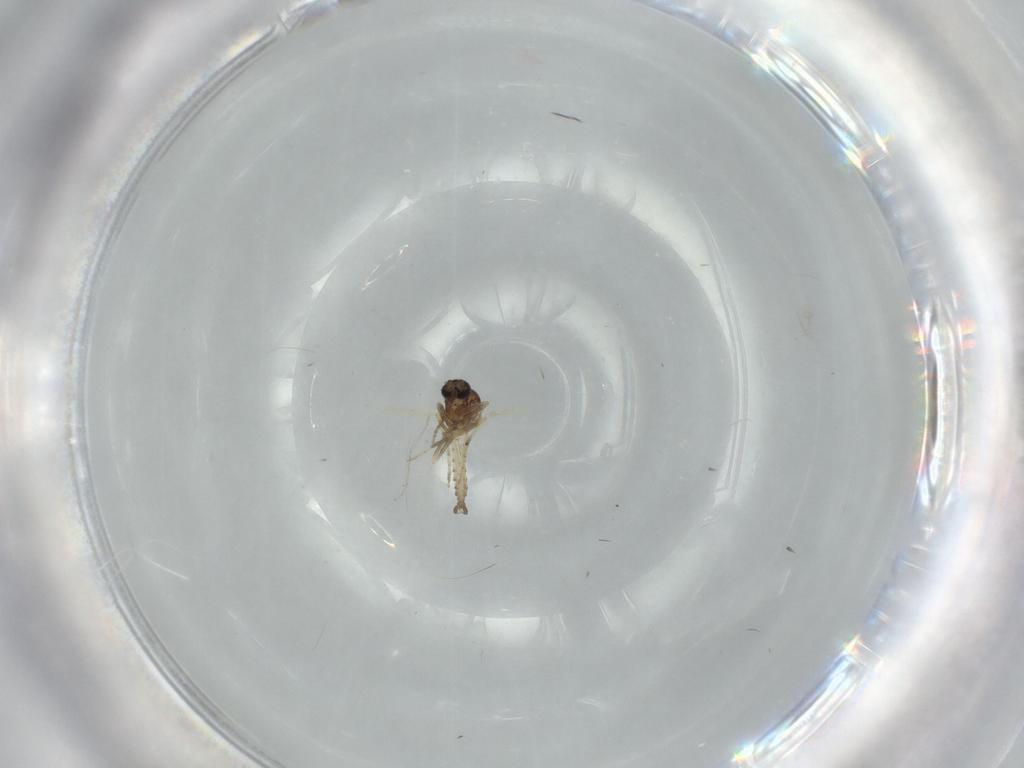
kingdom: Animalia
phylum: Arthropoda
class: Insecta
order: Diptera
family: Ceratopogonidae
